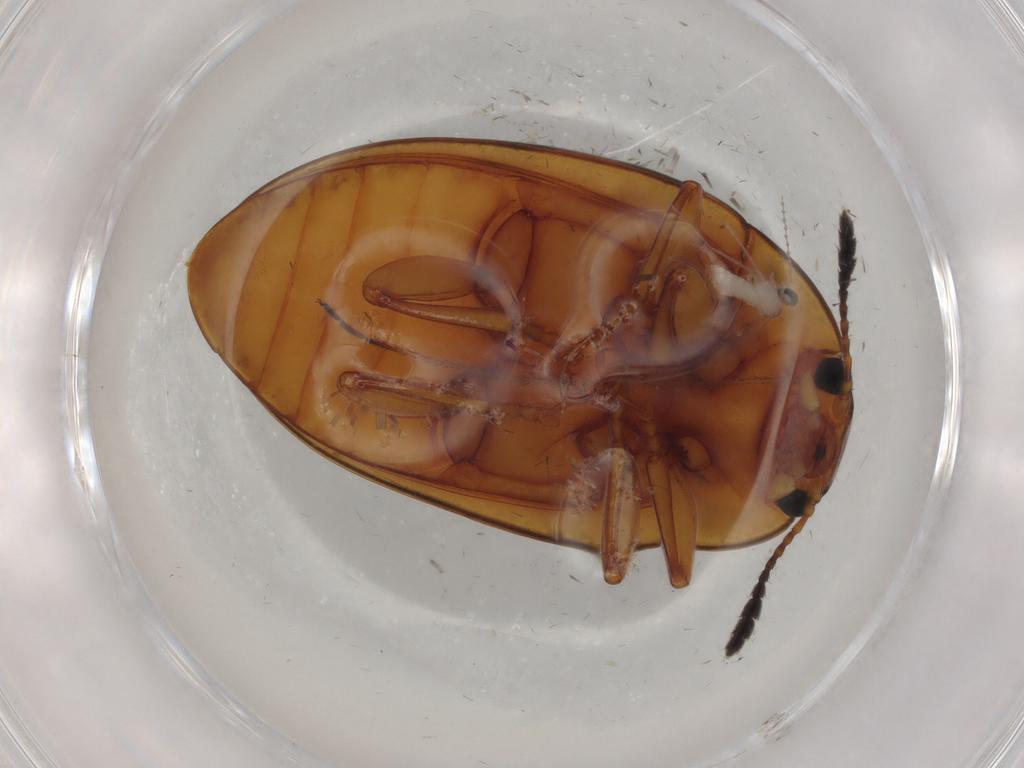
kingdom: Animalia
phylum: Arthropoda
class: Insecta
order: Coleoptera
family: Erotylidae
